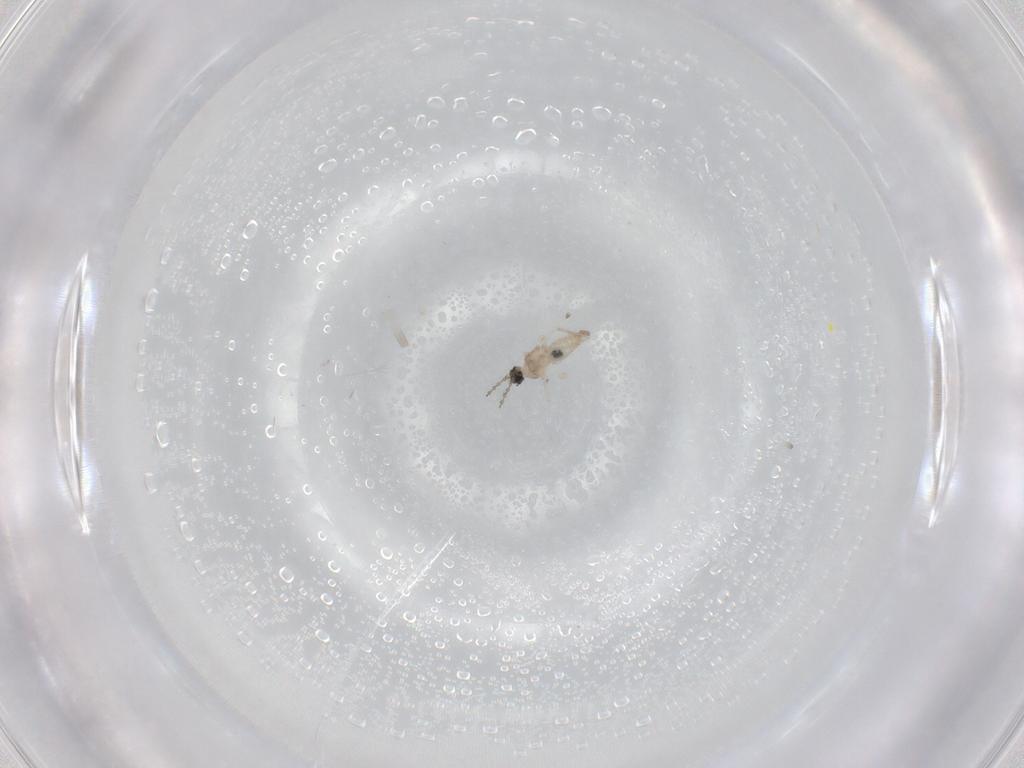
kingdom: Animalia
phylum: Arthropoda
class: Insecta
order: Diptera
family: Cecidomyiidae
